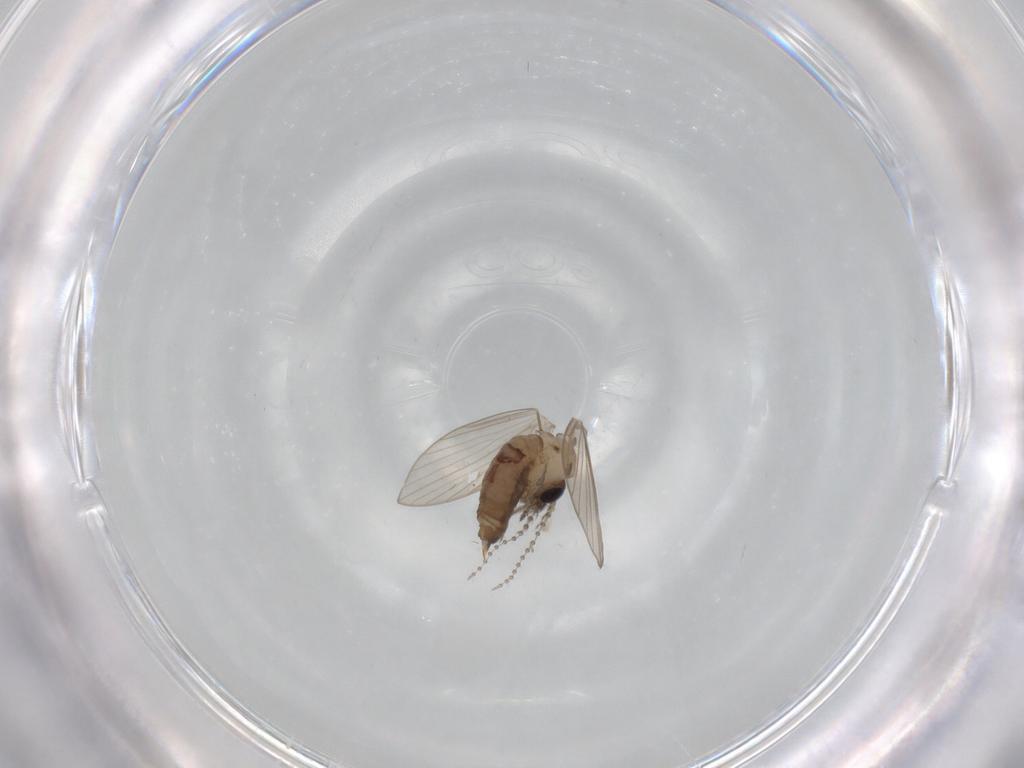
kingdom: Animalia
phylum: Arthropoda
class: Insecta
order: Diptera
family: Psychodidae
